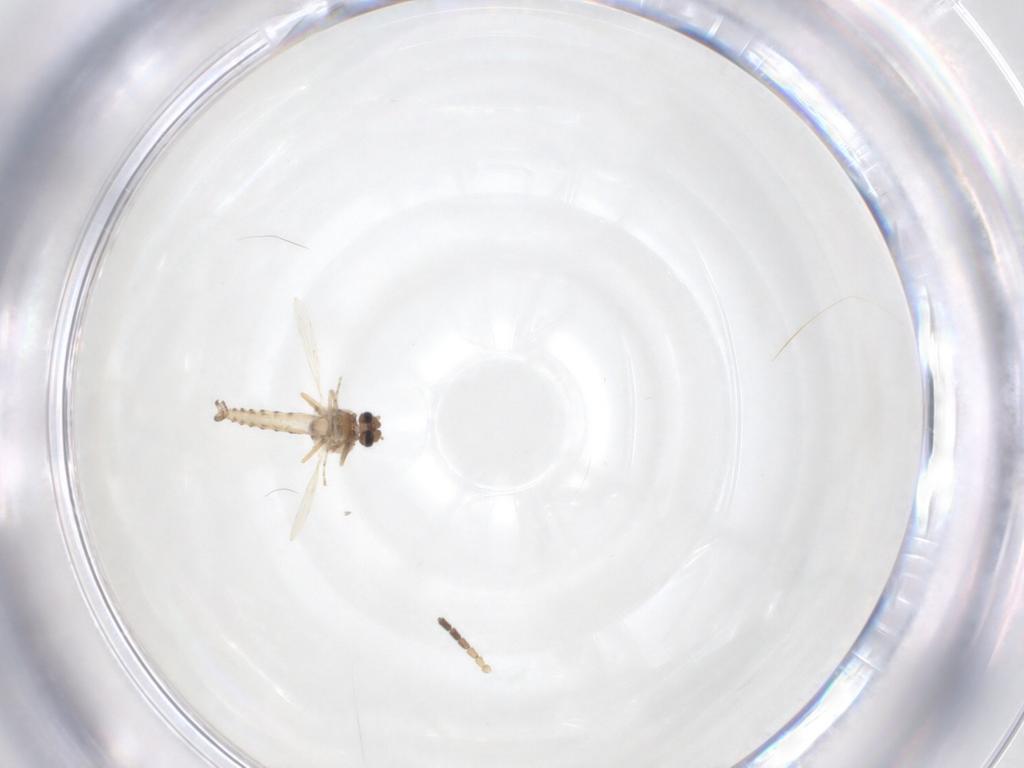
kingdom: Animalia
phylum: Arthropoda
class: Insecta
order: Diptera
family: Sciaridae
